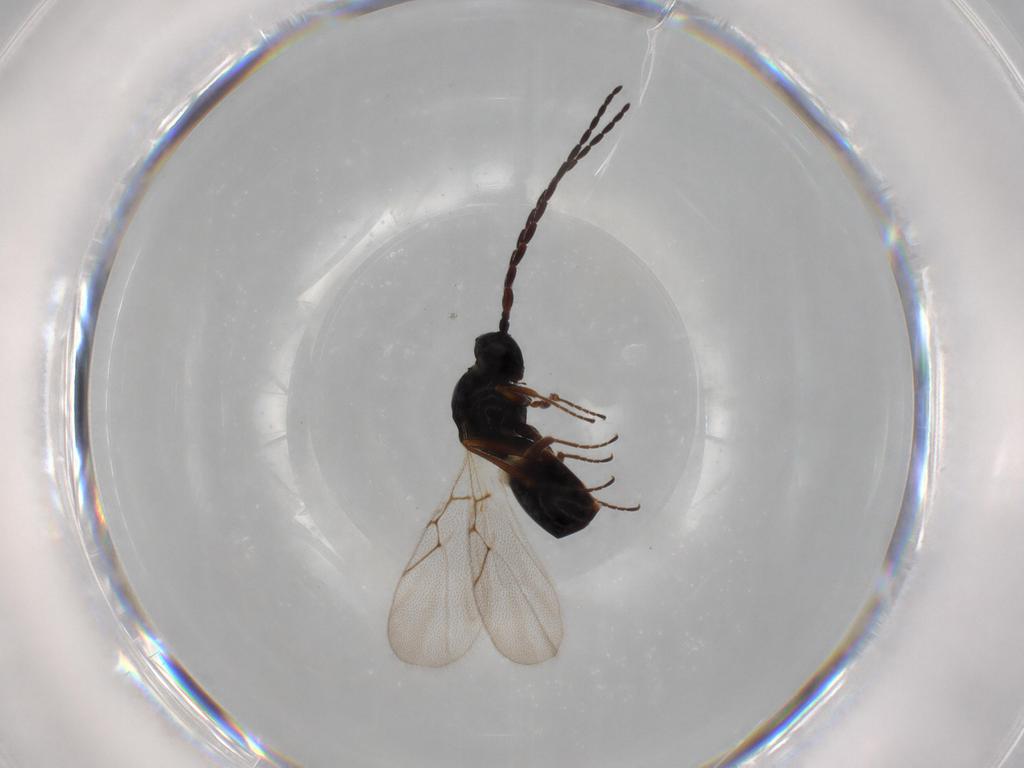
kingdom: Animalia
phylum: Arthropoda
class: Insecta
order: Hymenoptera
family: Figitidae
